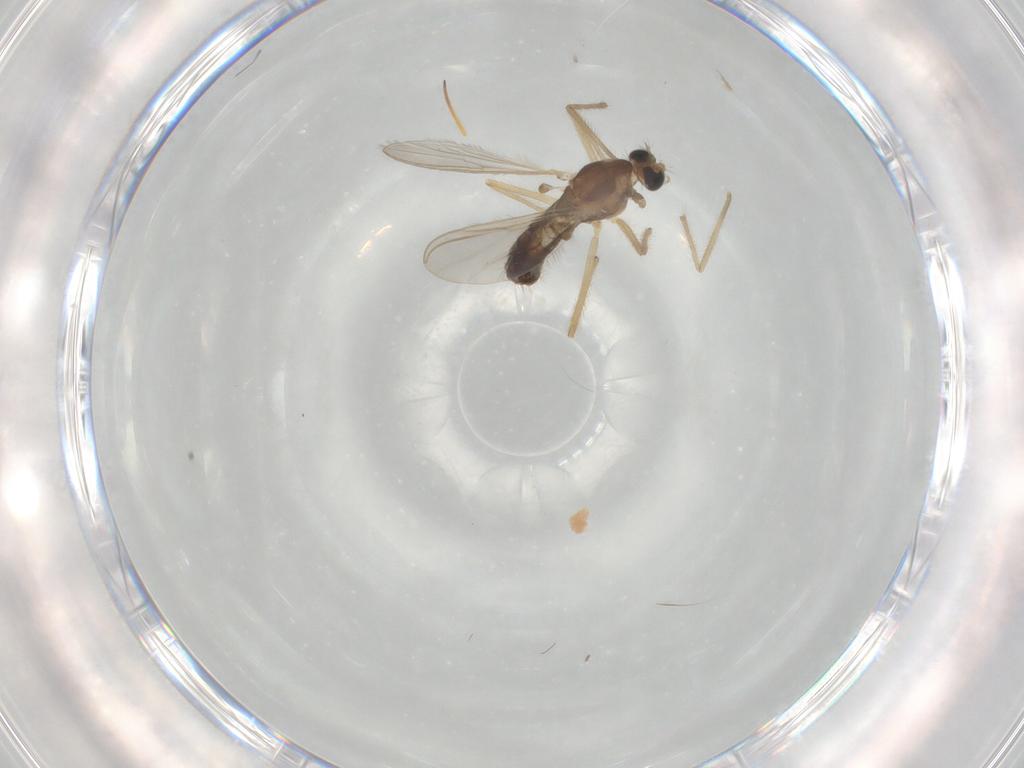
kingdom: Animalia
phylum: Arthropoda
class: Insecta
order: Diptera
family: Chironomidae
